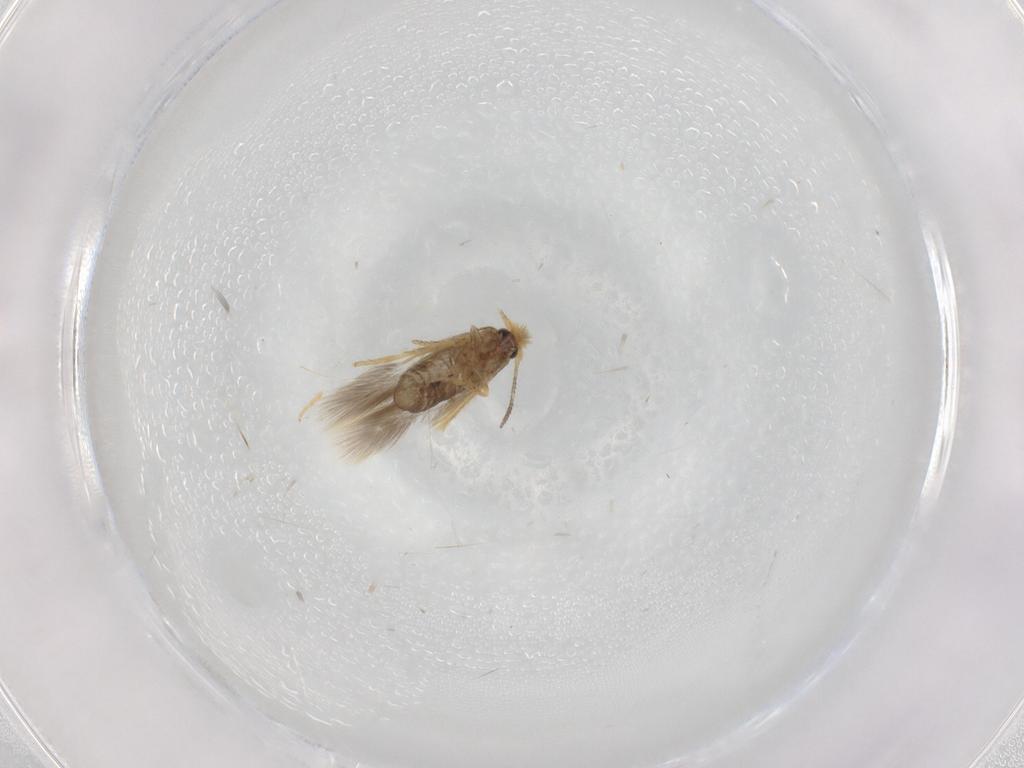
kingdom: Animalia
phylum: Arthropoda
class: Insecta
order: Lepidoptera
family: Nepticulidae
